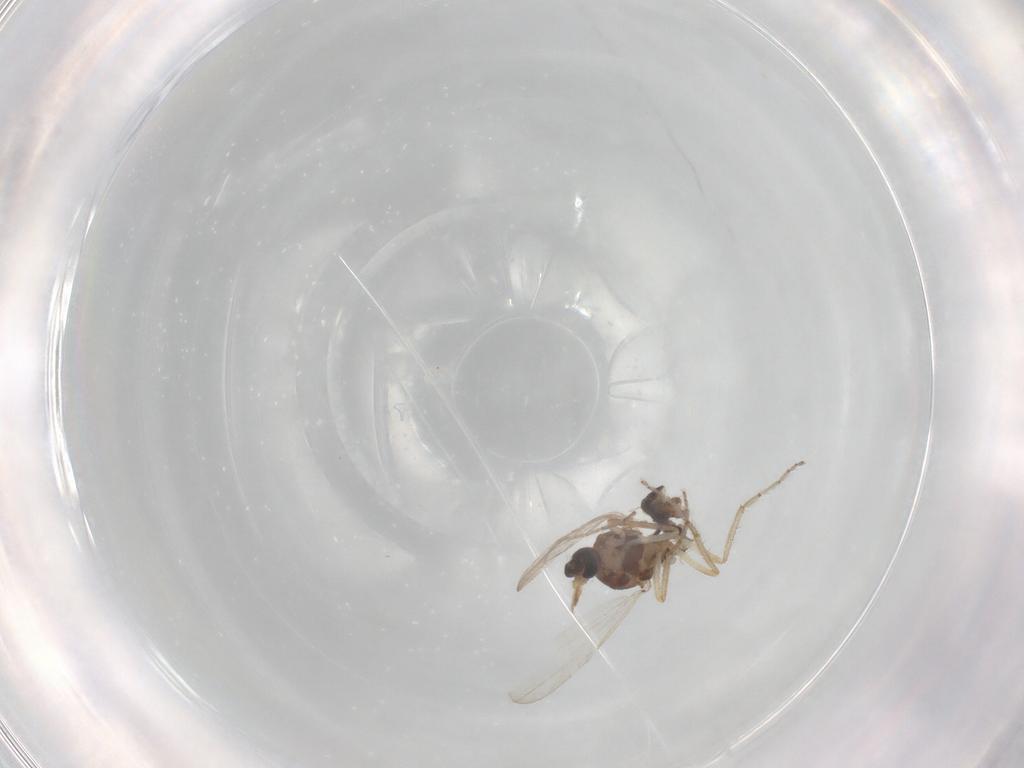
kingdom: Animalia
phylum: Arthropoda
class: Insecta
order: Diptera
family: Ceratopogonidae
